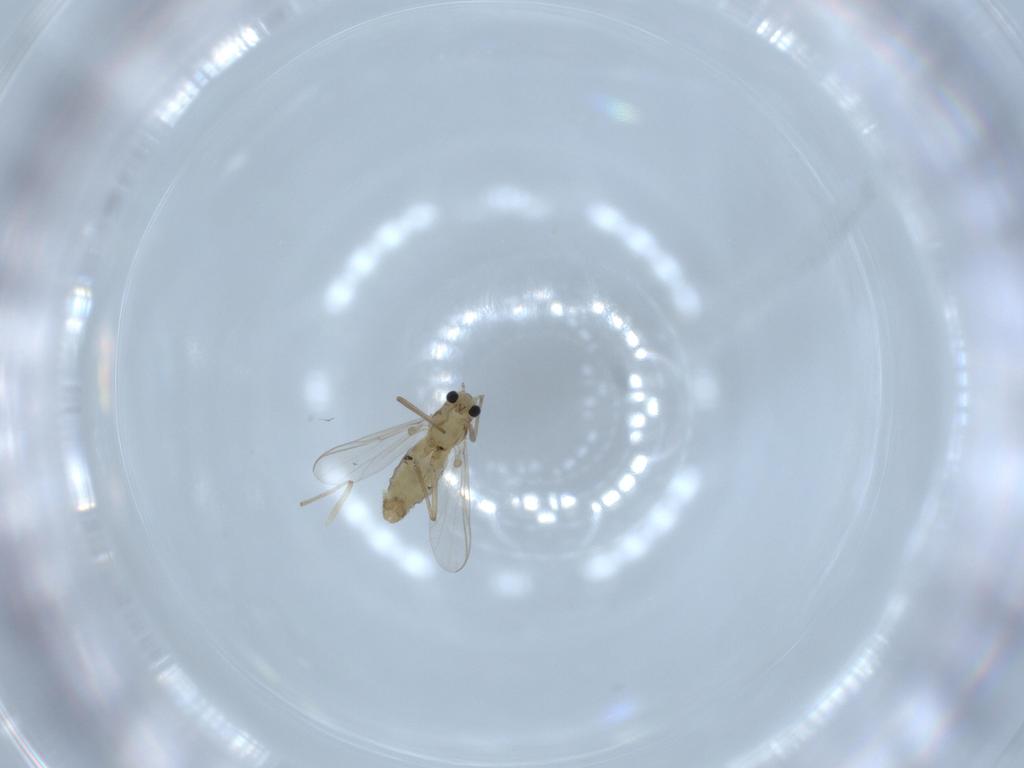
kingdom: Animalia
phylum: Arthropoda
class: Insecta
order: Diptera
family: Chironomidae
